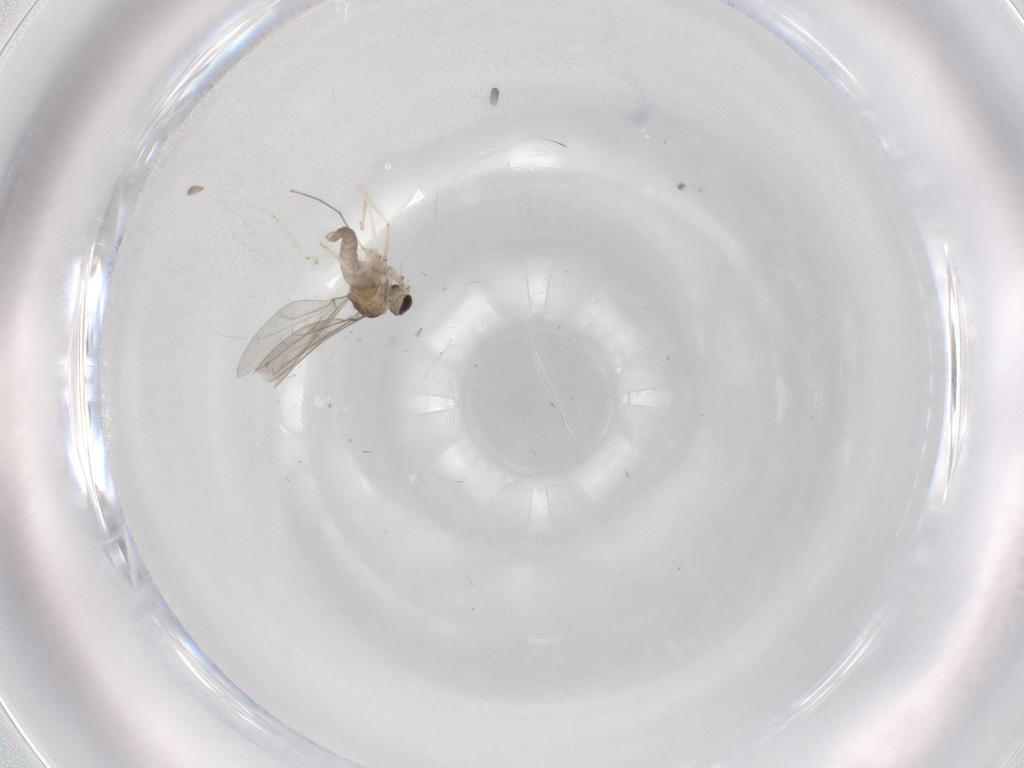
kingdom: Animalia
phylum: Arthropoda
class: Insecta
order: Diptera
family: Cecidomyiidae
